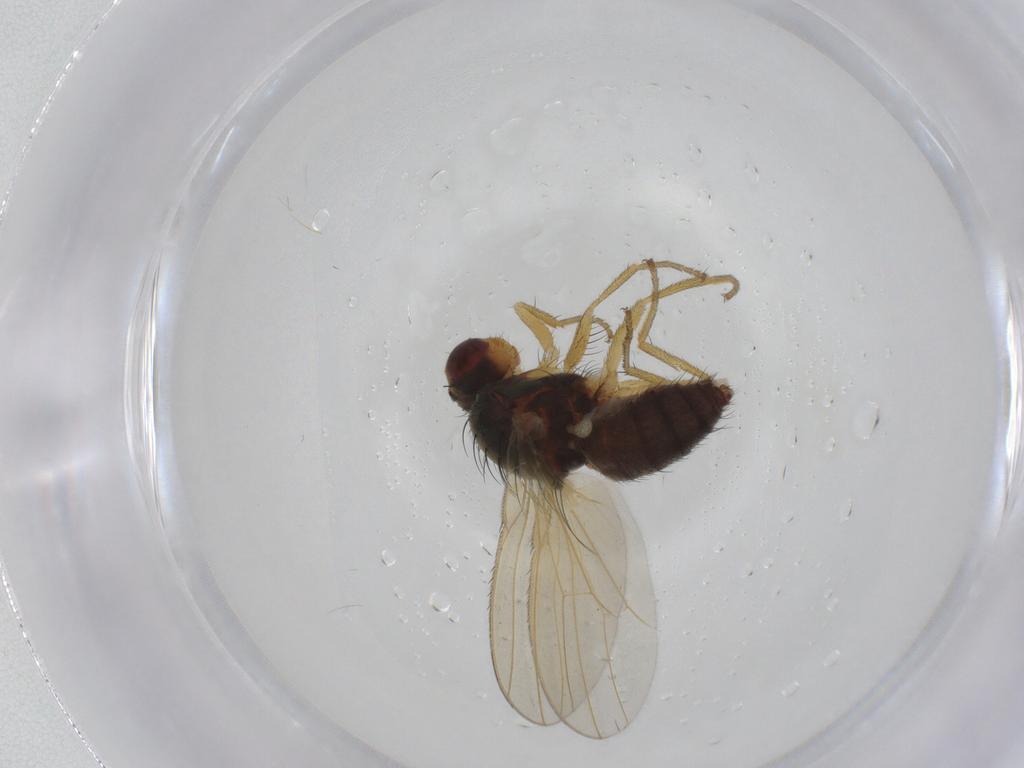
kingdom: Animalia
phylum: Arthropoda
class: Insecta
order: Diptera
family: Heleomyzidae
